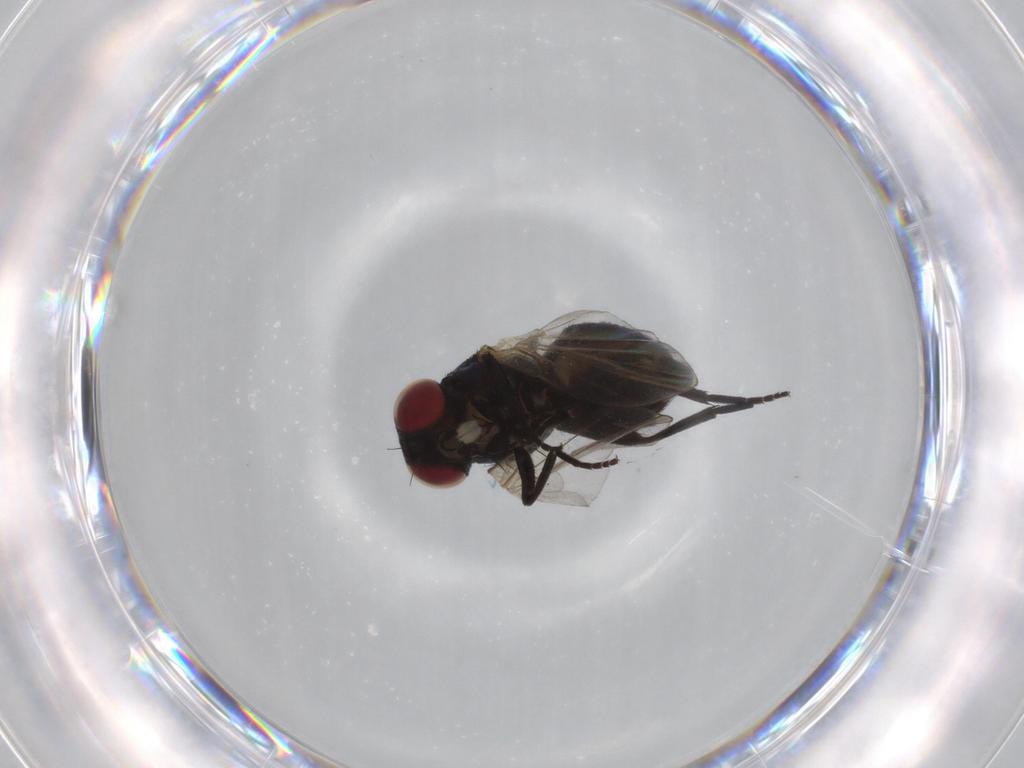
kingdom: Animalia
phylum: Arthropoda
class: Insecta
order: Diptera
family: Agromyzidae
